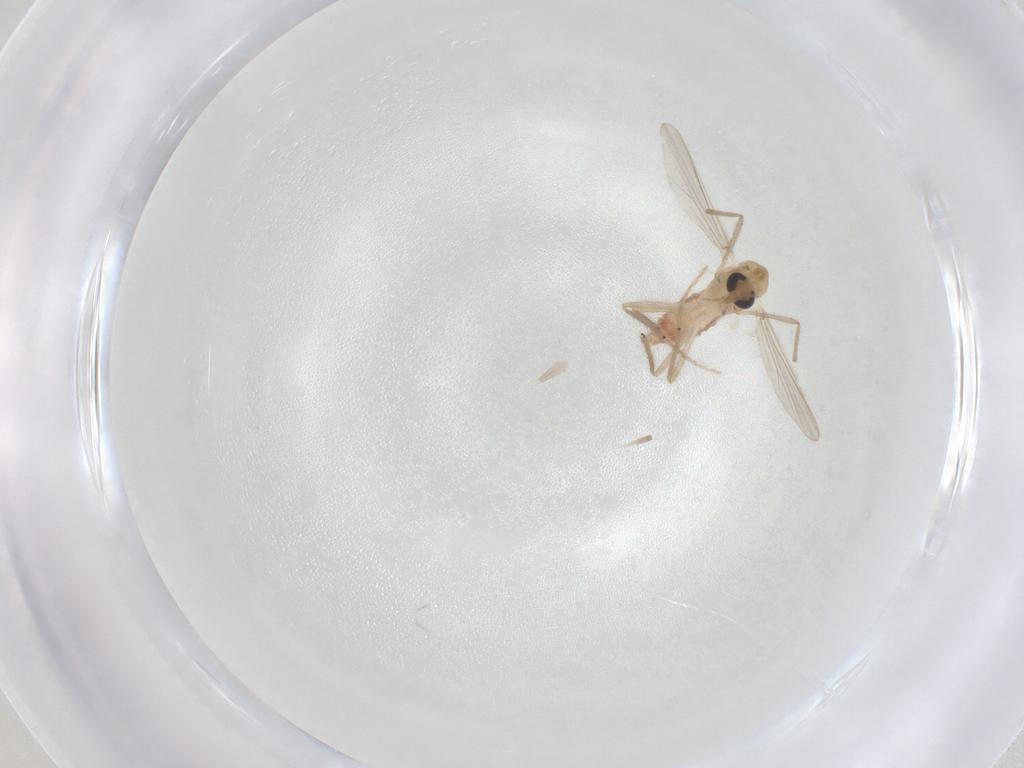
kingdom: Animalia
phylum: Arthropoda
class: Insecta
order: Diptera
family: Chironomidae
